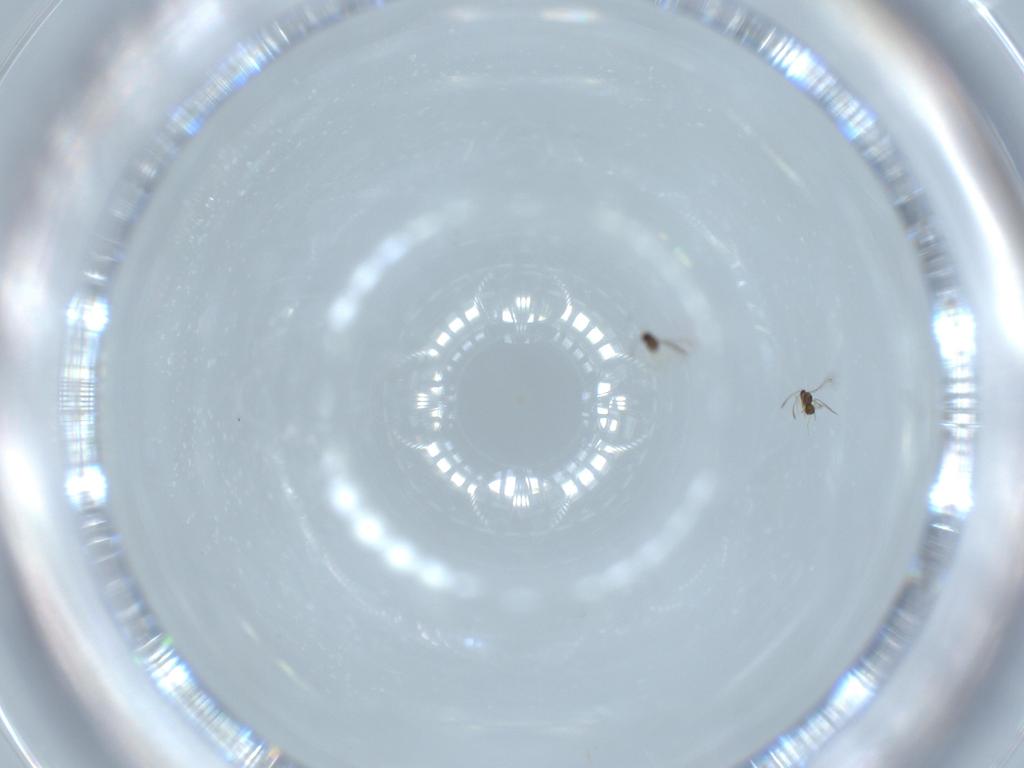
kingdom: Animalia
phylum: Arthropoda
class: Insecta
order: Hymenoptera
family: Mymaridae
